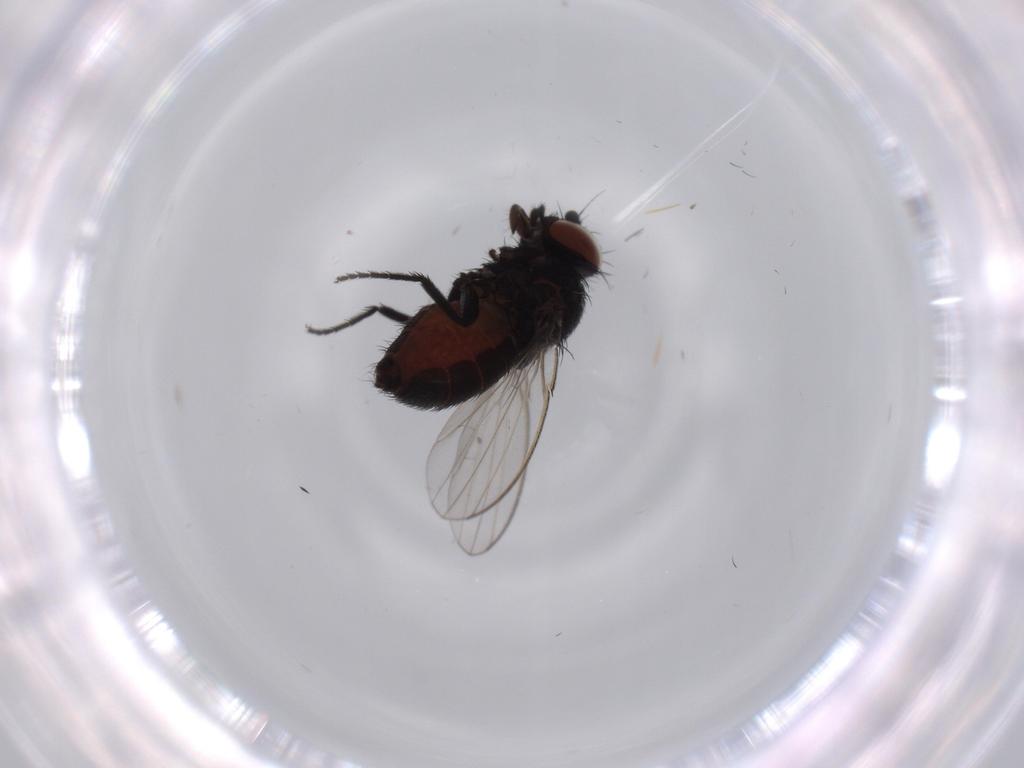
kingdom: Animalia
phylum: Arthropoda
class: Insecta
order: Diptera
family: Milichiidae
